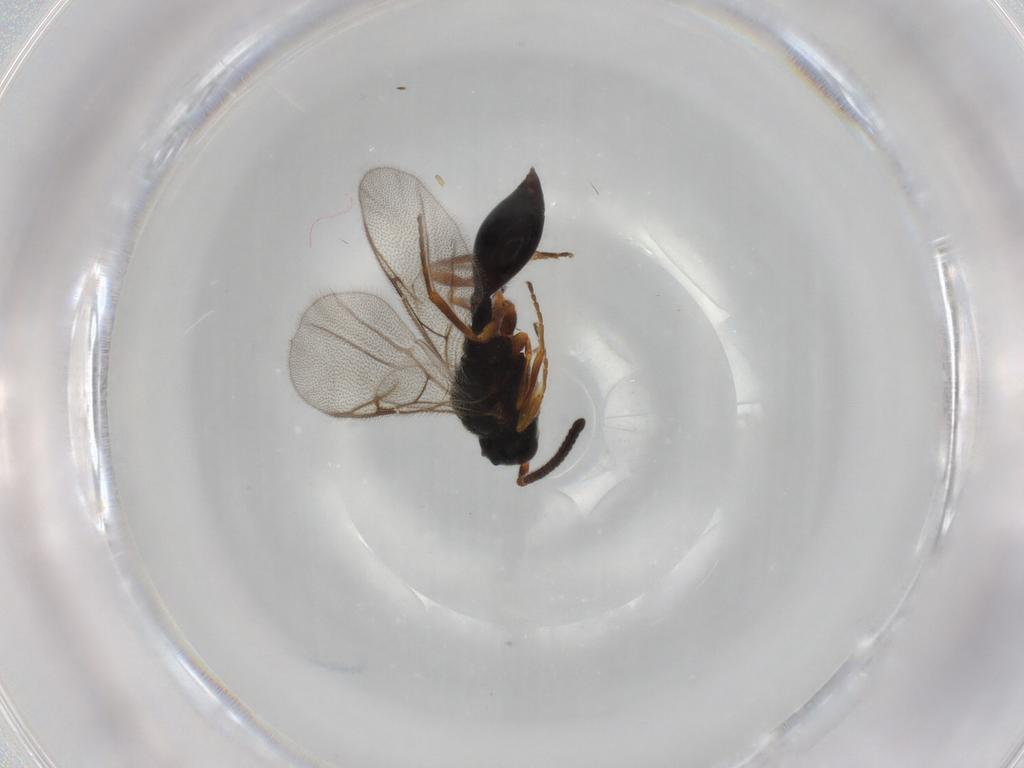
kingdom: Animalia
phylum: Arthropoda
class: Insecta
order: Hymenoptera
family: Diapriidae
